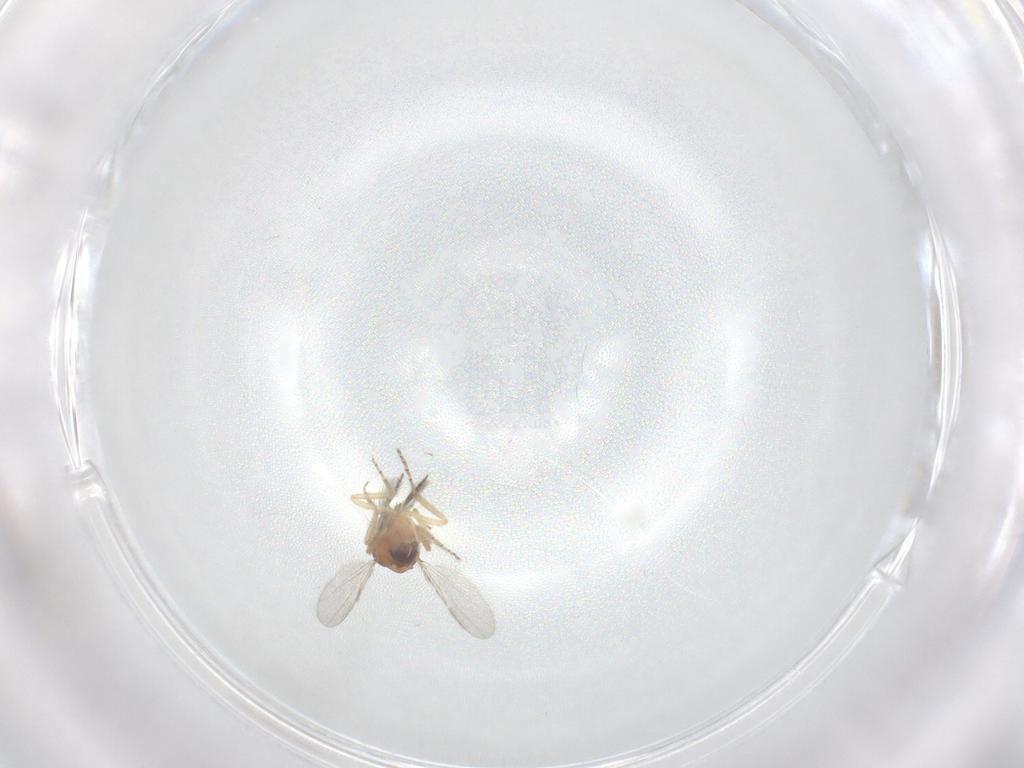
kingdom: Animalia
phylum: Arthropoda
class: Insecta
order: Diptera
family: Ceratopogonidae
